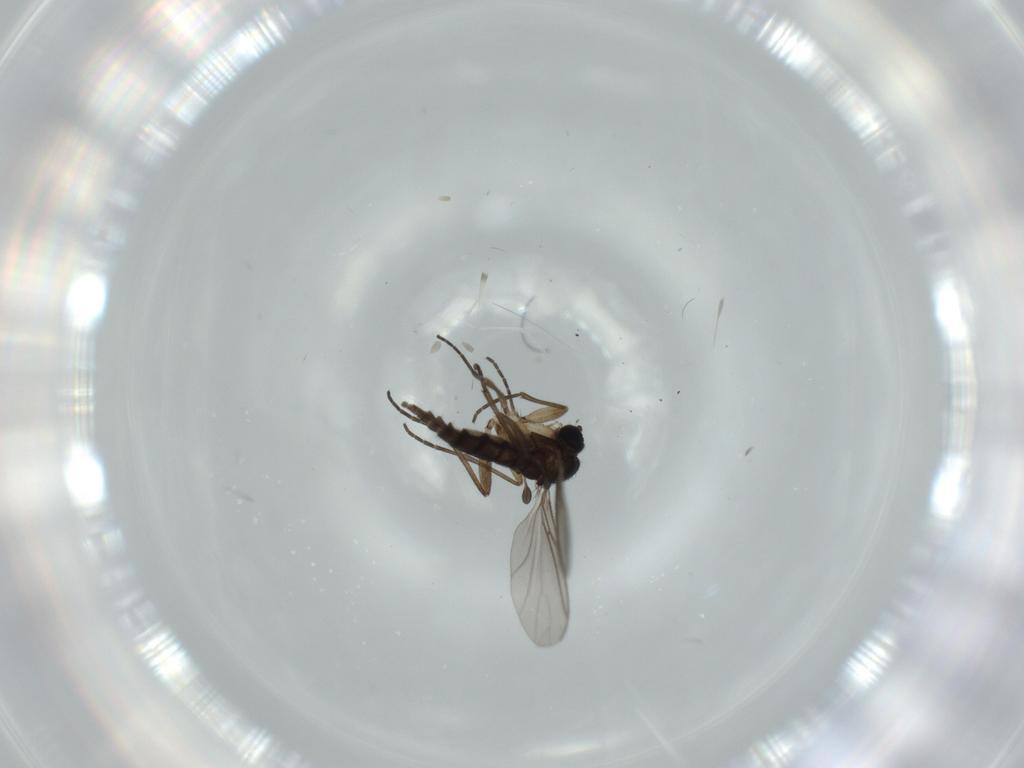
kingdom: Animalia
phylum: Arthropoda
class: Insecta
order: Diptera
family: Sciaridae
